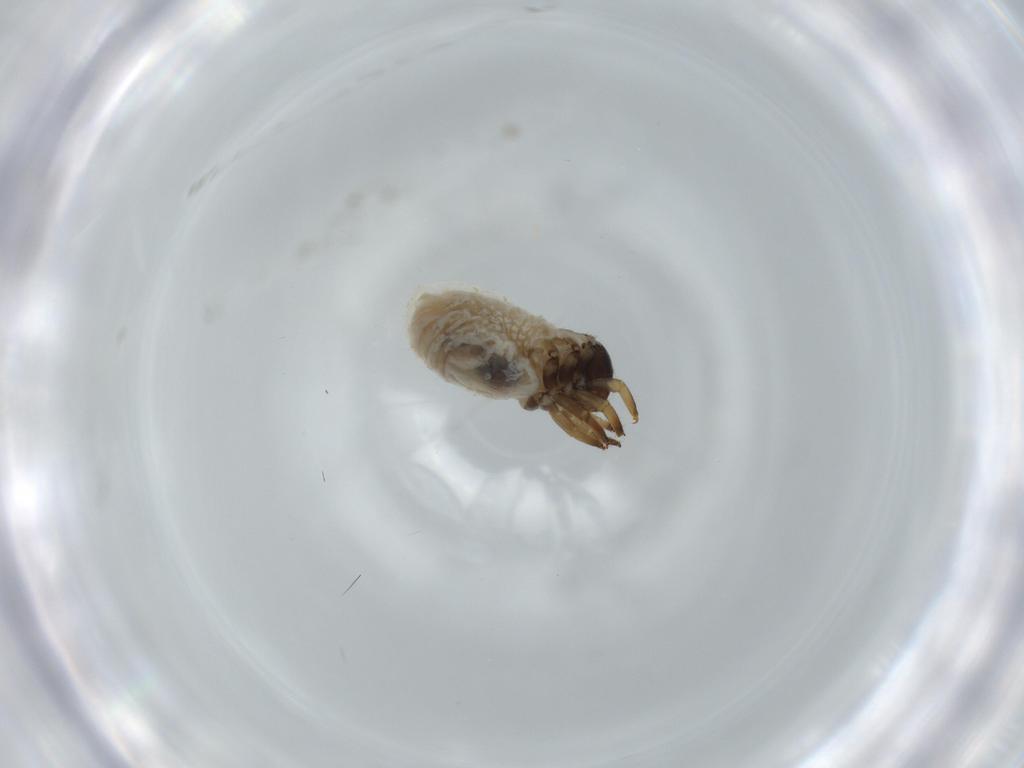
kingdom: Animalia
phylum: Arthropoda
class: Insecta
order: Coleoptera
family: Chrysomelidae
